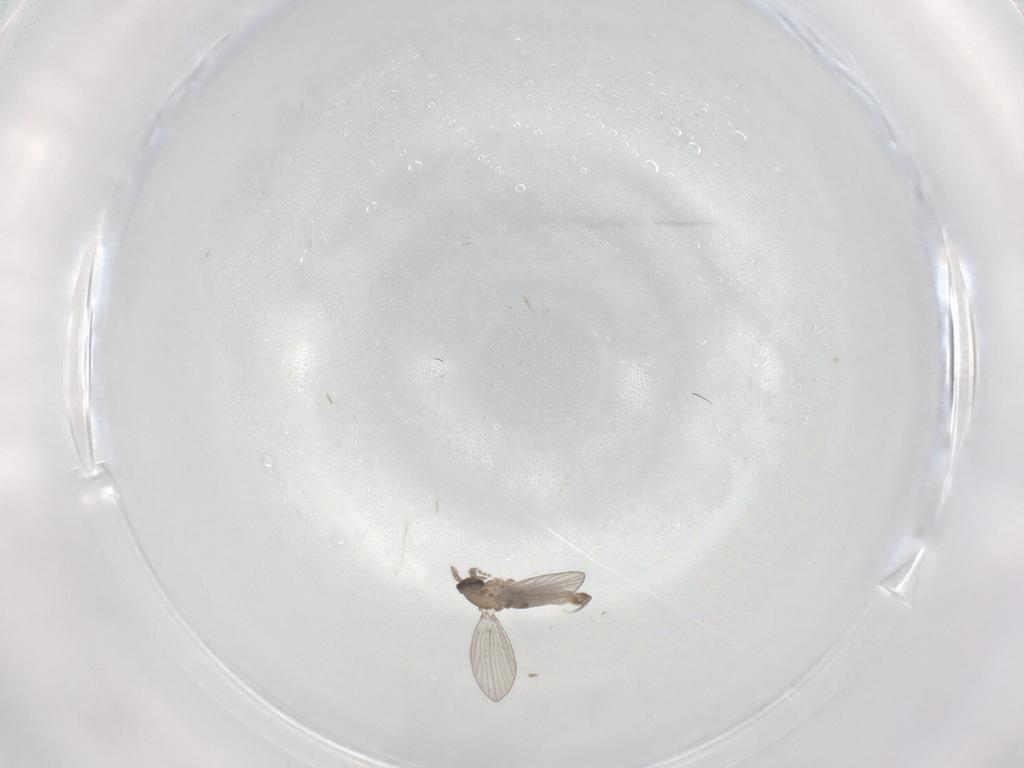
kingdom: Animalia
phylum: Arthropoda
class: Insecta
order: Diptera
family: Cecidomyiidae
